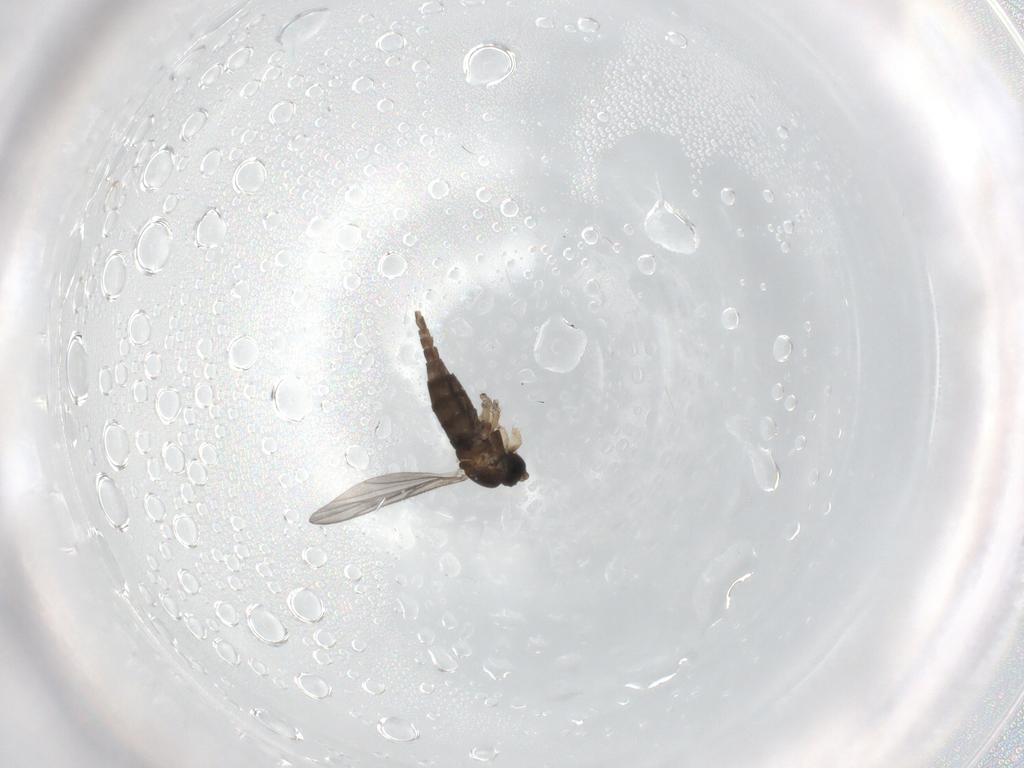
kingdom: Animalia
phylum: Arthropoda
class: Insecta
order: Diptera
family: Sciaridae
